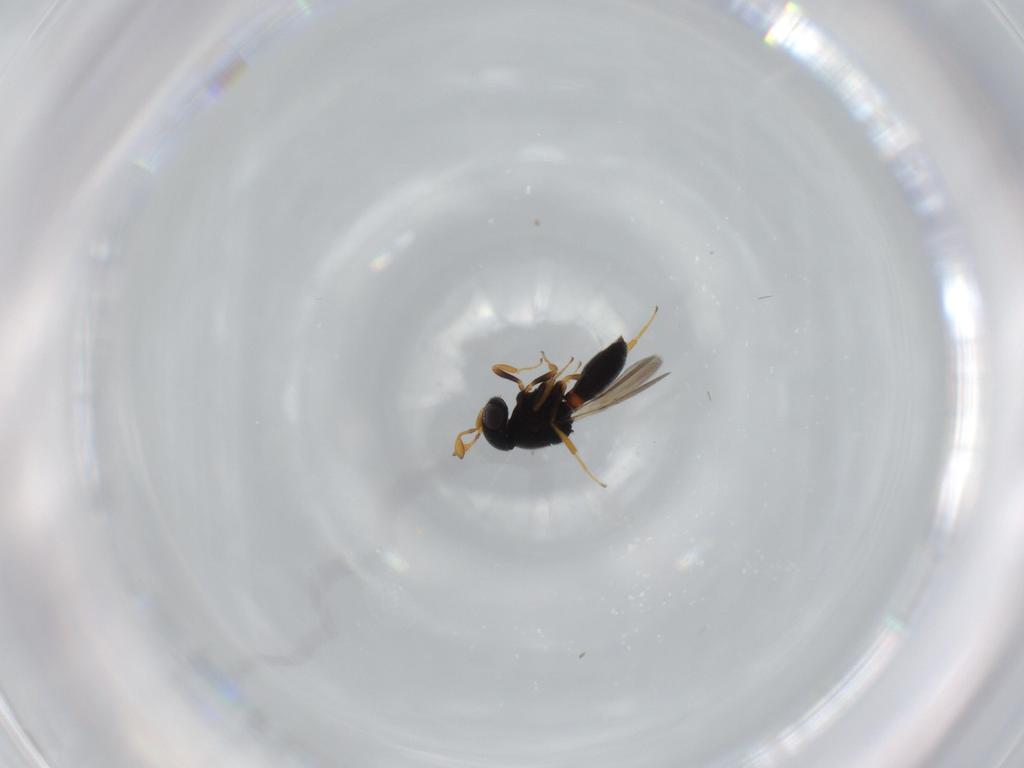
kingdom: Animalia
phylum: Arthropoda
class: Insecta
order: Hymenoptera
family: Scelionidae
